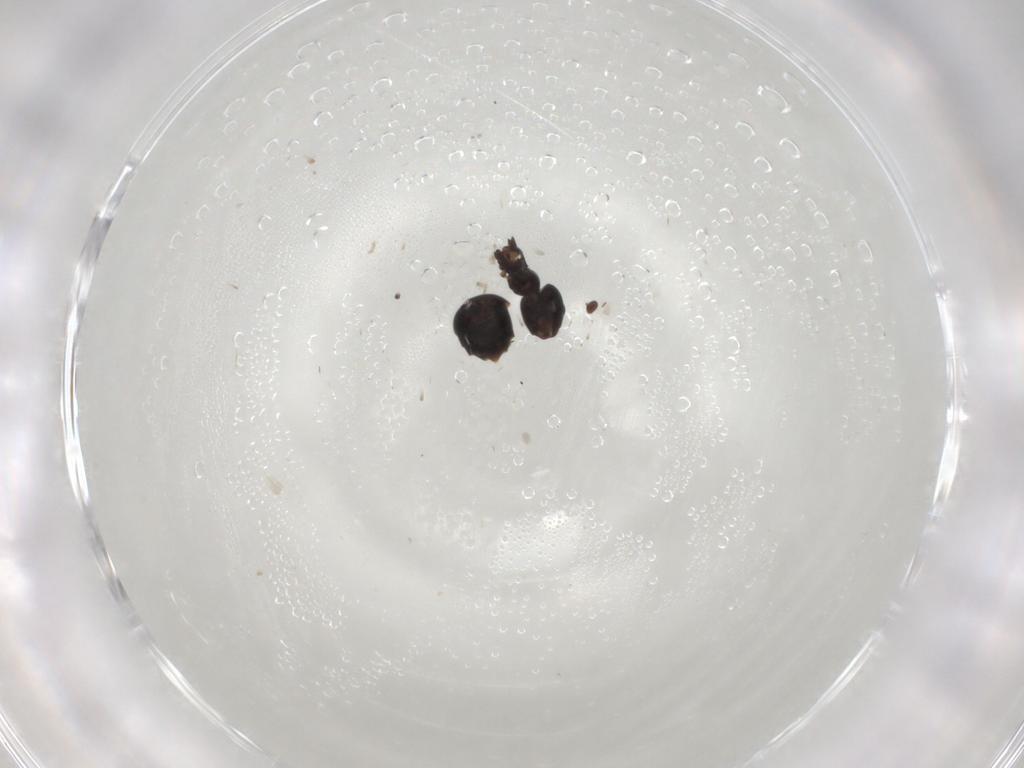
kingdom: Animalia
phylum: Arthropoda
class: Insecta
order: Hymenoptera
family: Formicidae
